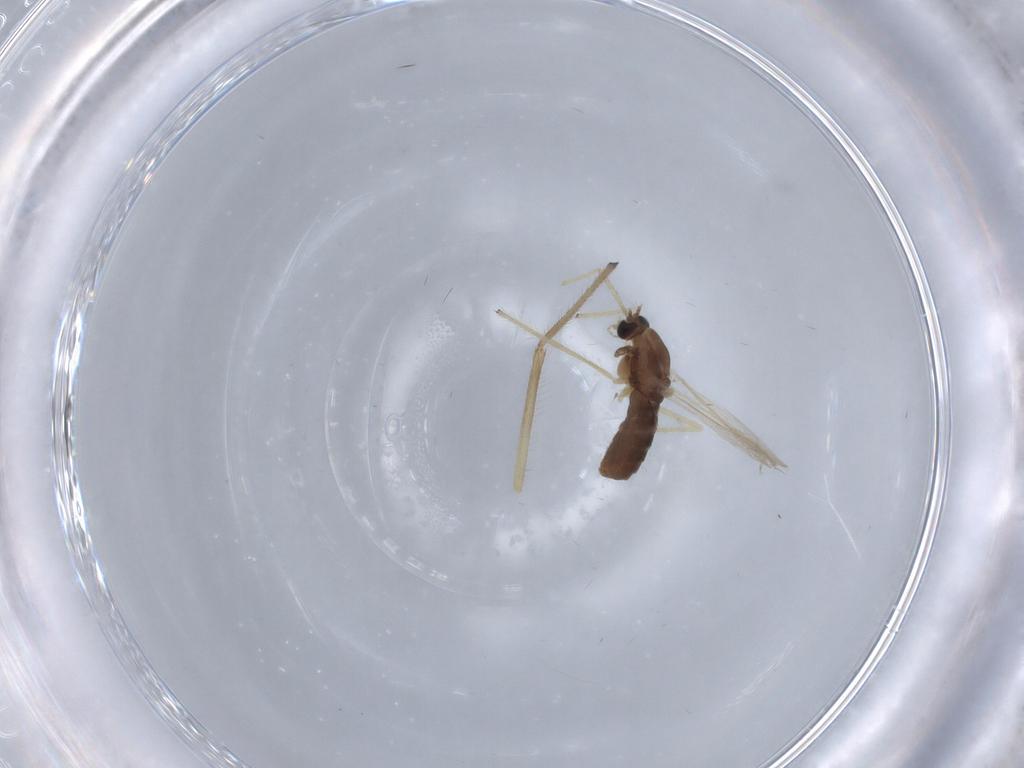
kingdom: Animalia
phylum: Arthropoda
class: Insecta
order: Diptera
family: Chironomidae
